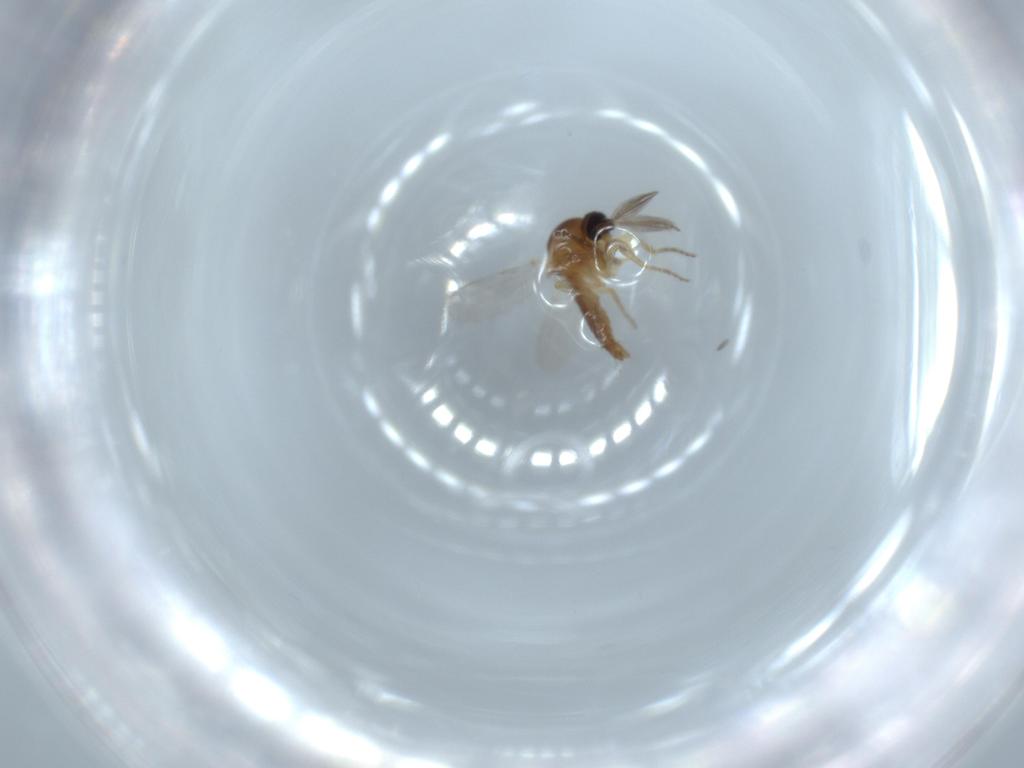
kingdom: Animalia
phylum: Arthropoda
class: Insecta
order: Diptera
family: Ceratopogonidae
